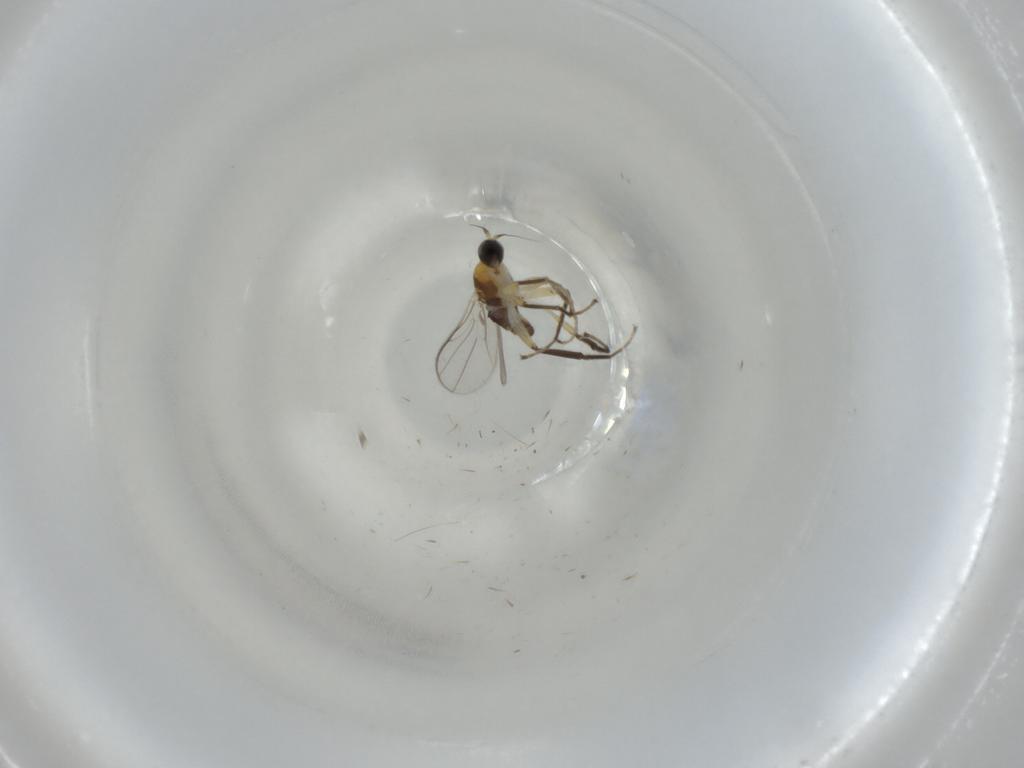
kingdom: Animalia
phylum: Arthropoda
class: Insecta
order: Diptera
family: Hybotidae
